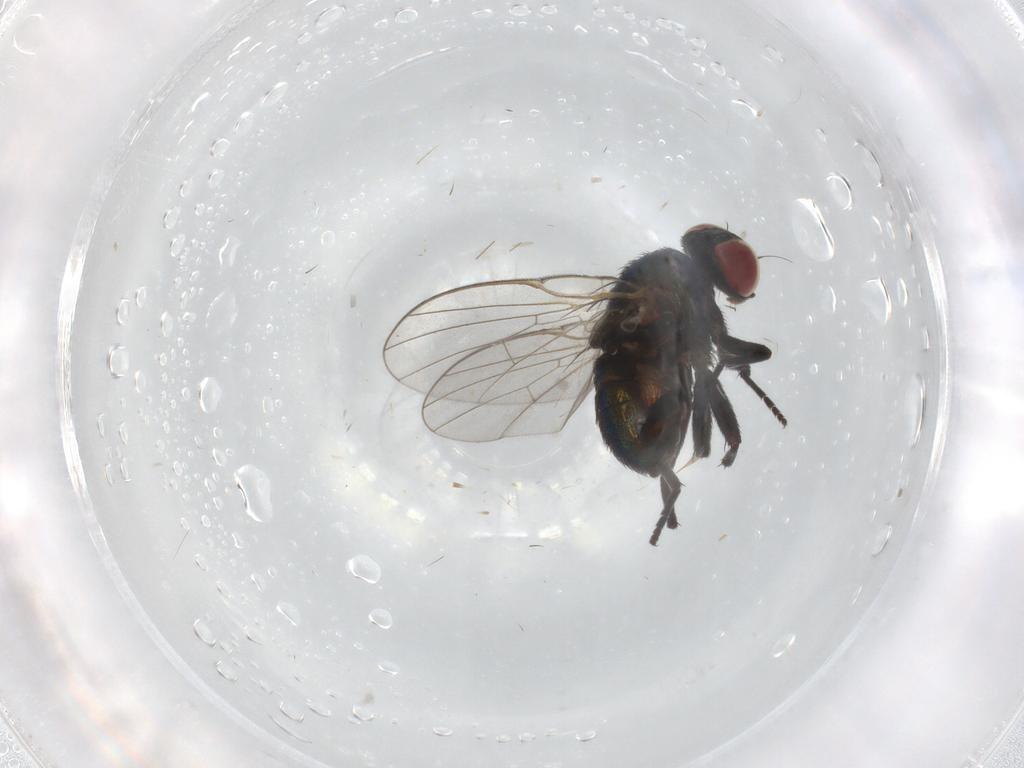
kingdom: Animalia
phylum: Arthropoda
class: Insecta
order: Diptera
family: Agromyzidae
